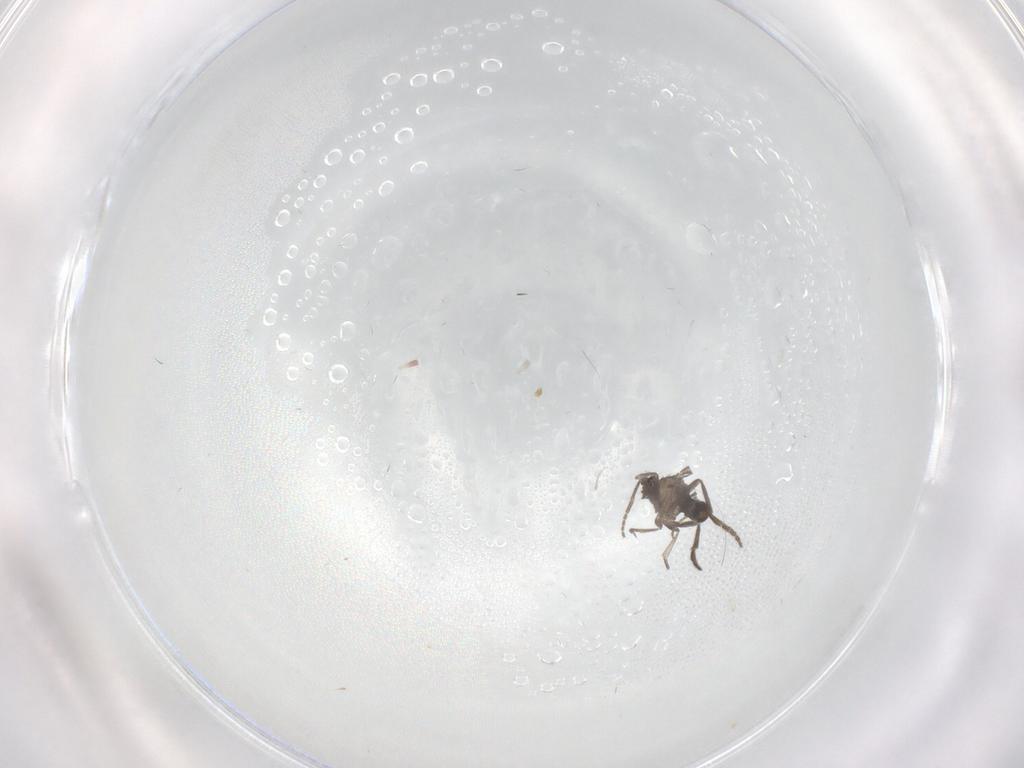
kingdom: Animalia
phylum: Arthropoda
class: Insecta
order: Diptera
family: Phoridae
